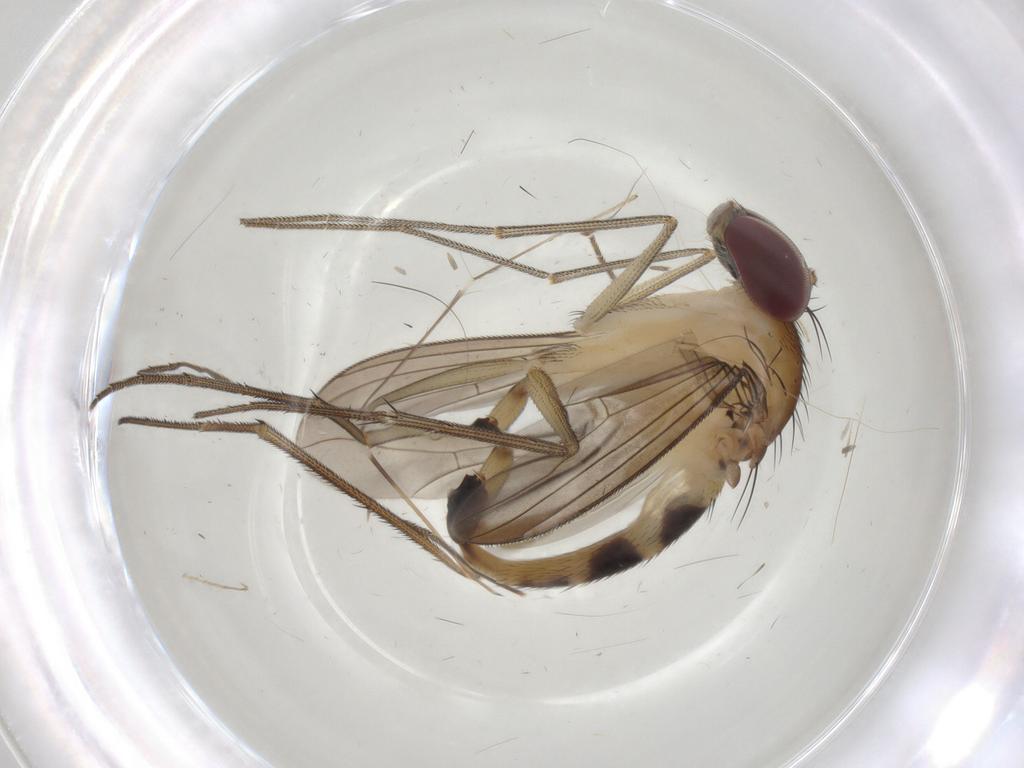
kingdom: Animalia
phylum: Arthropoda
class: Insecta
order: Diptera
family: Dolichopodidae
